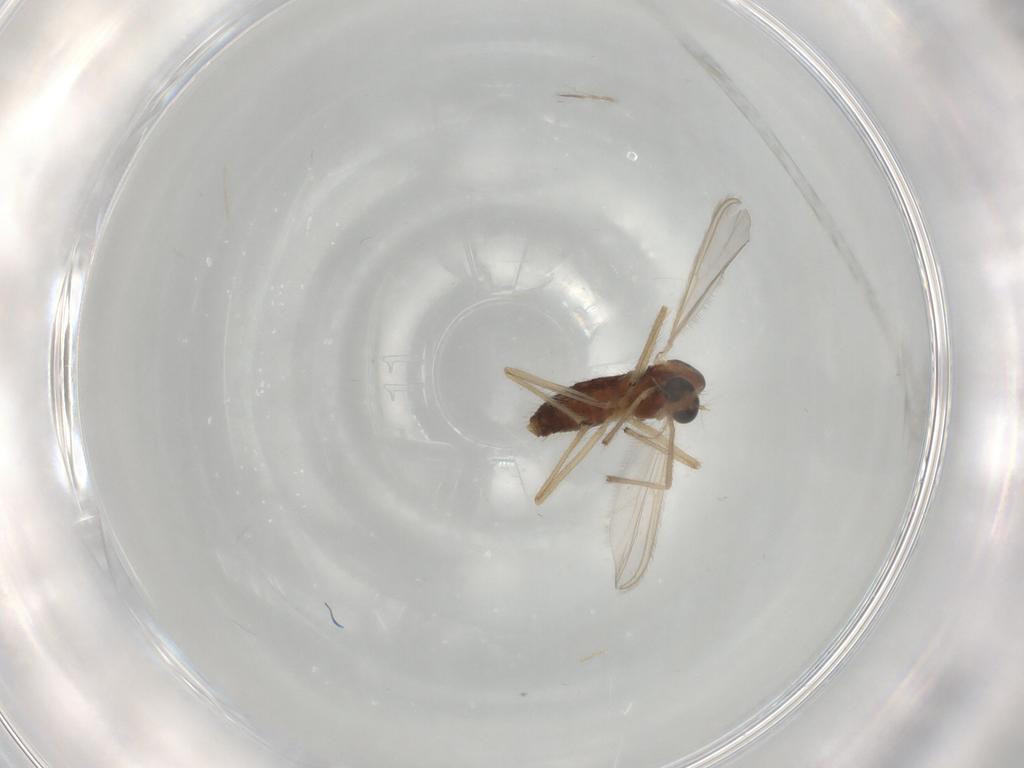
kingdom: Animalia
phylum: Arthropoda
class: Insecta
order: Diptera
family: Chironomidae
